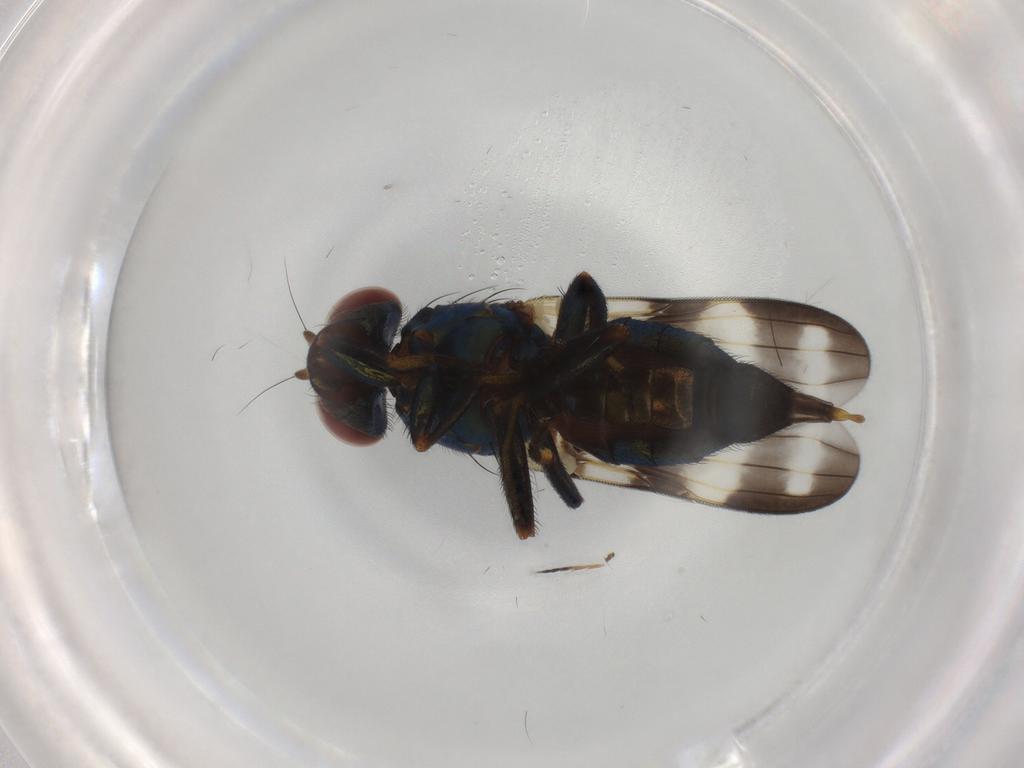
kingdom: Animalia
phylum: Arthropoda
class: Insecta
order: Diptera
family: Ulidiidae
